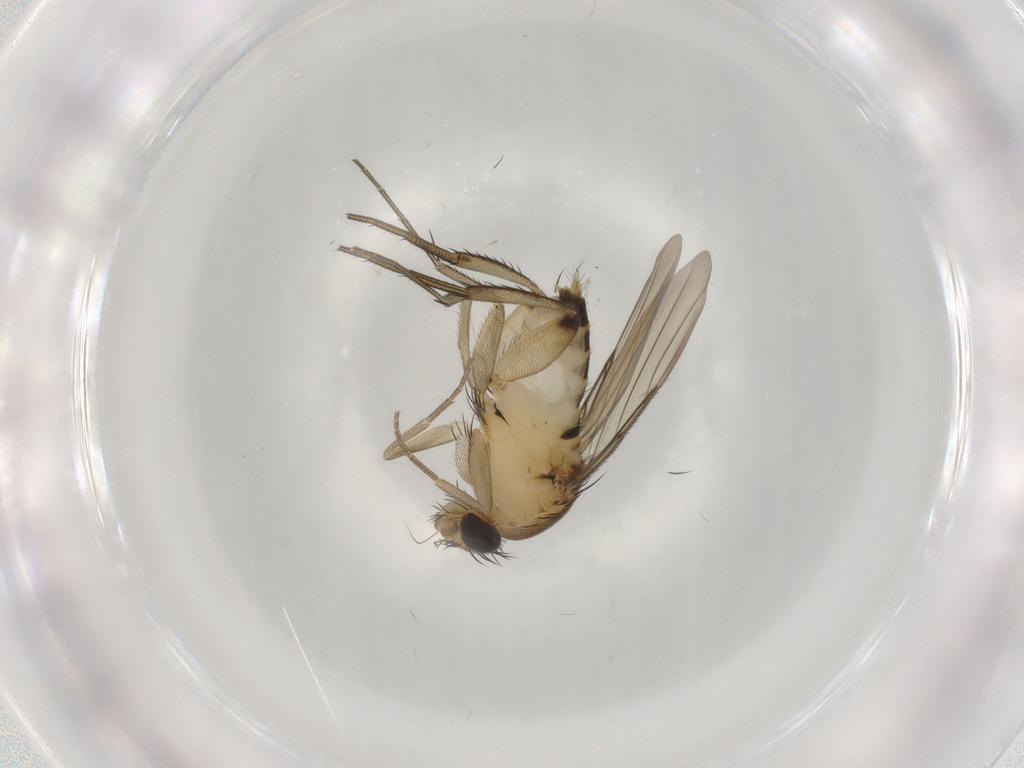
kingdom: Animalia
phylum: Arthropoda
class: Insecta
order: Diptera
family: Phoridae
